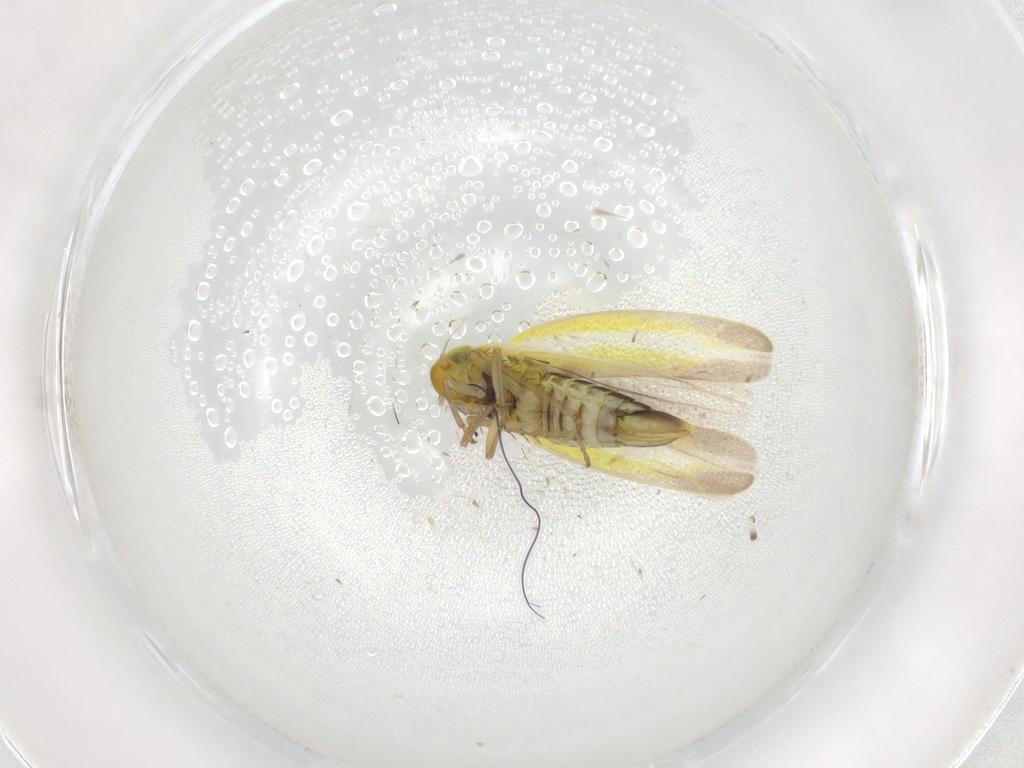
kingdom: Animalia
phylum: Arthropoda
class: Insecta
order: Hemiptera
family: Cicadellidae
